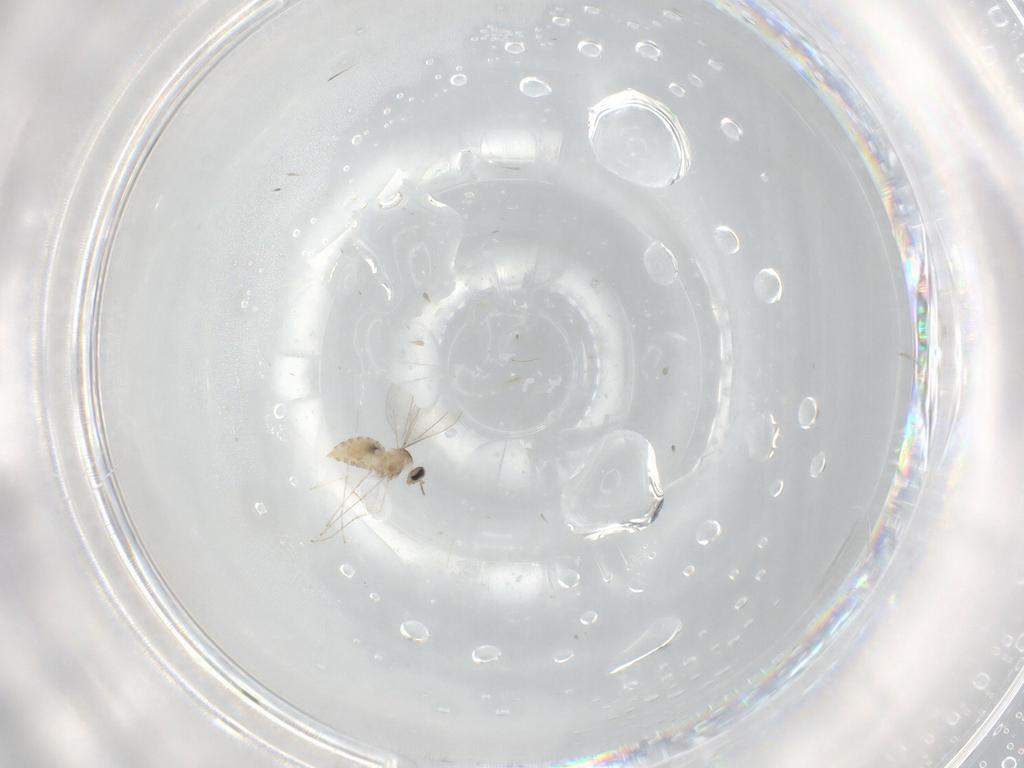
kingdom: Animalia
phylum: Arthropoda
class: Insecta
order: Diptera
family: Cecidomyiidae
